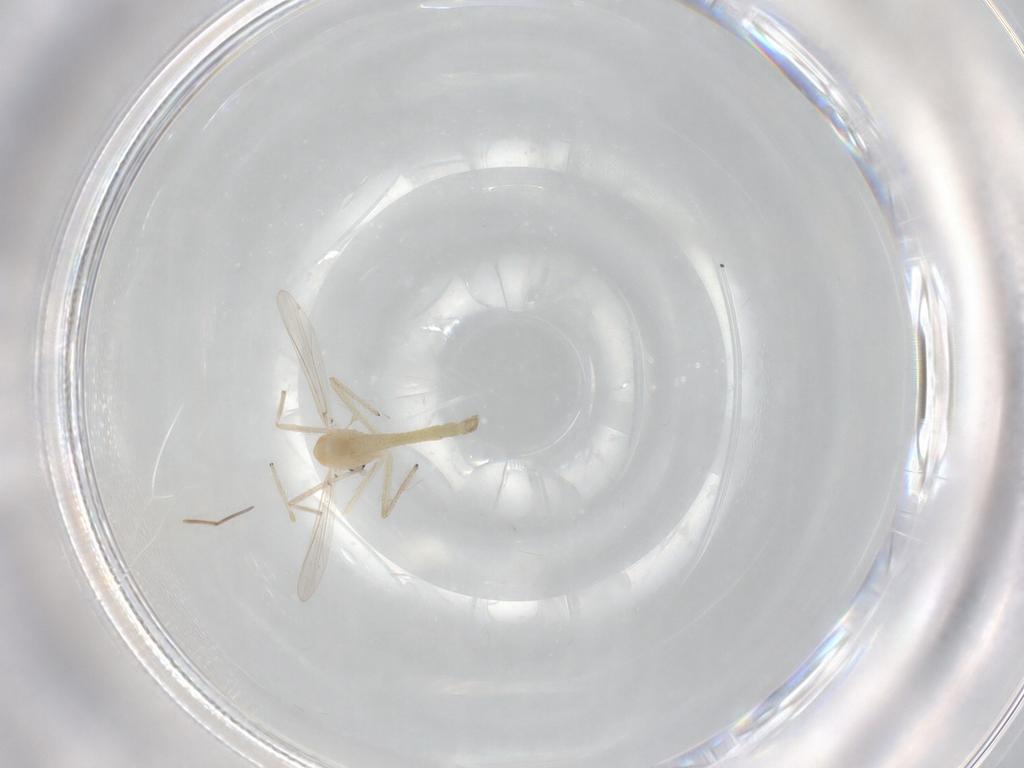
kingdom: Animalia
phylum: Arthropoda
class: Insecta
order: Diptera
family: Chironomidae
